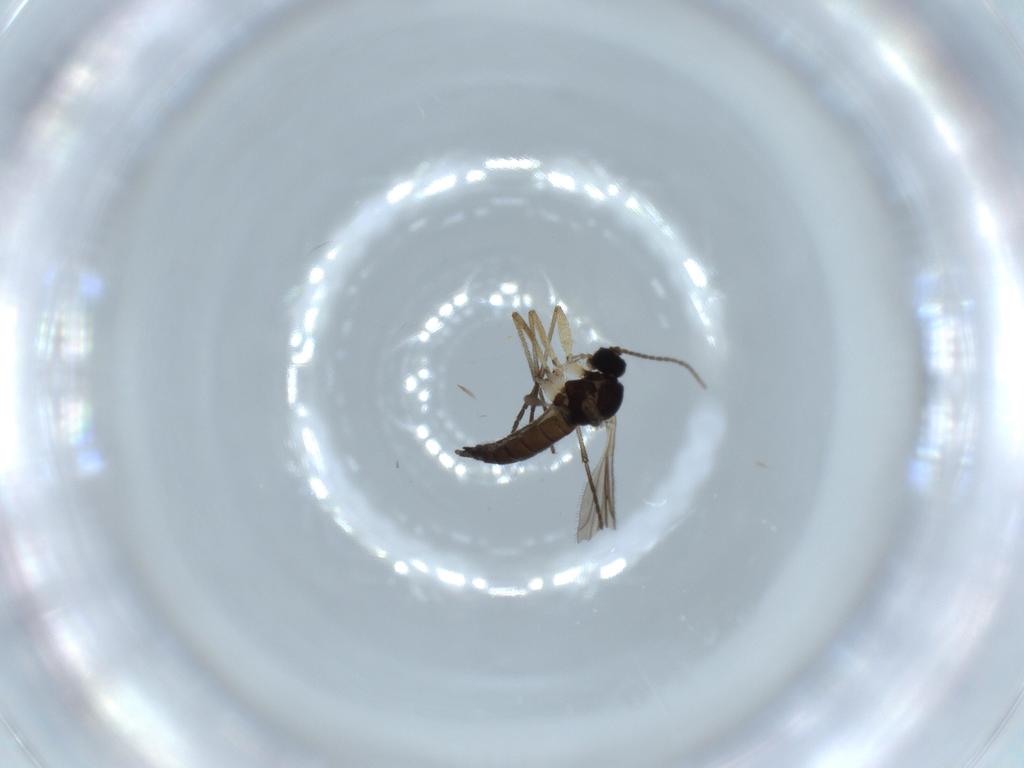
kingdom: Animalia
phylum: Arthropoda
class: Insecta
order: Diptera
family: Sciaridae
